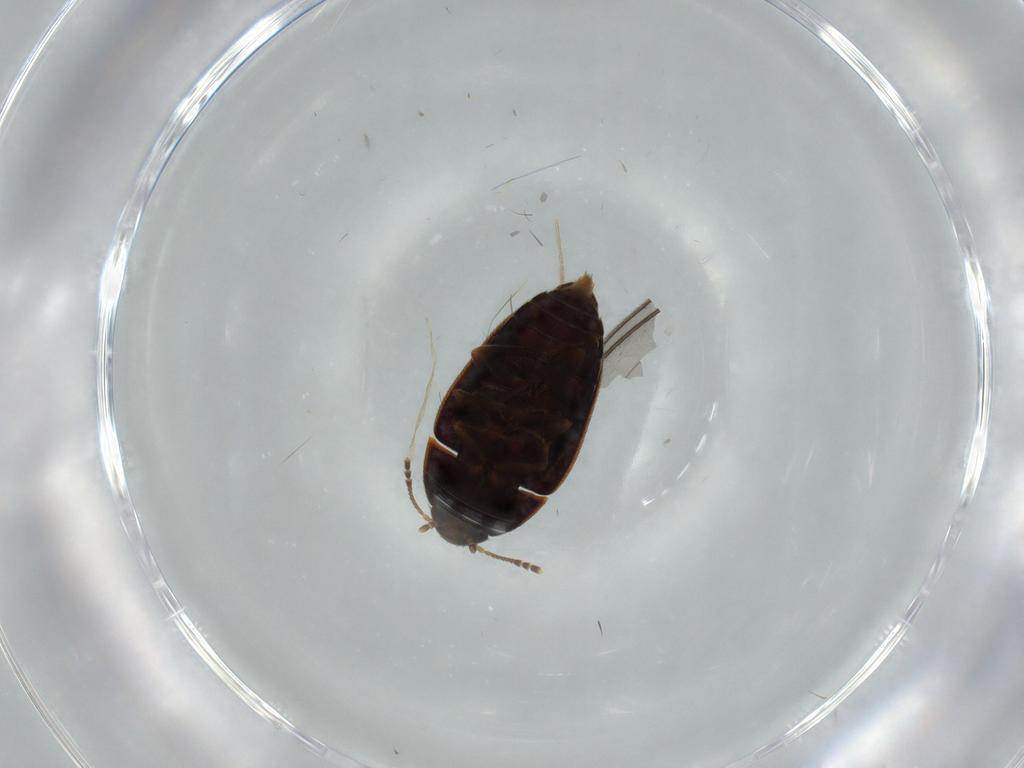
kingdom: Animalia
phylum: Arthropoda
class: Insecta
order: Coleoptera
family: Mycetophagidae
